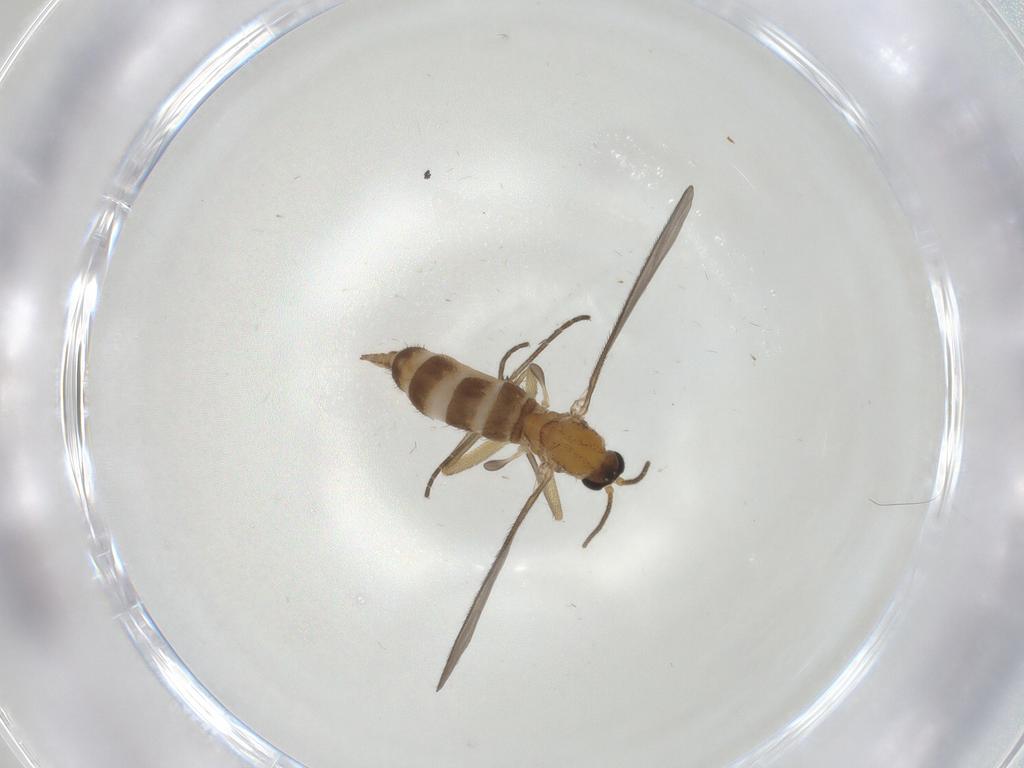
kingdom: Animalia
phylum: Arthropoda
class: Insecta
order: Diptera
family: Sciaridae
